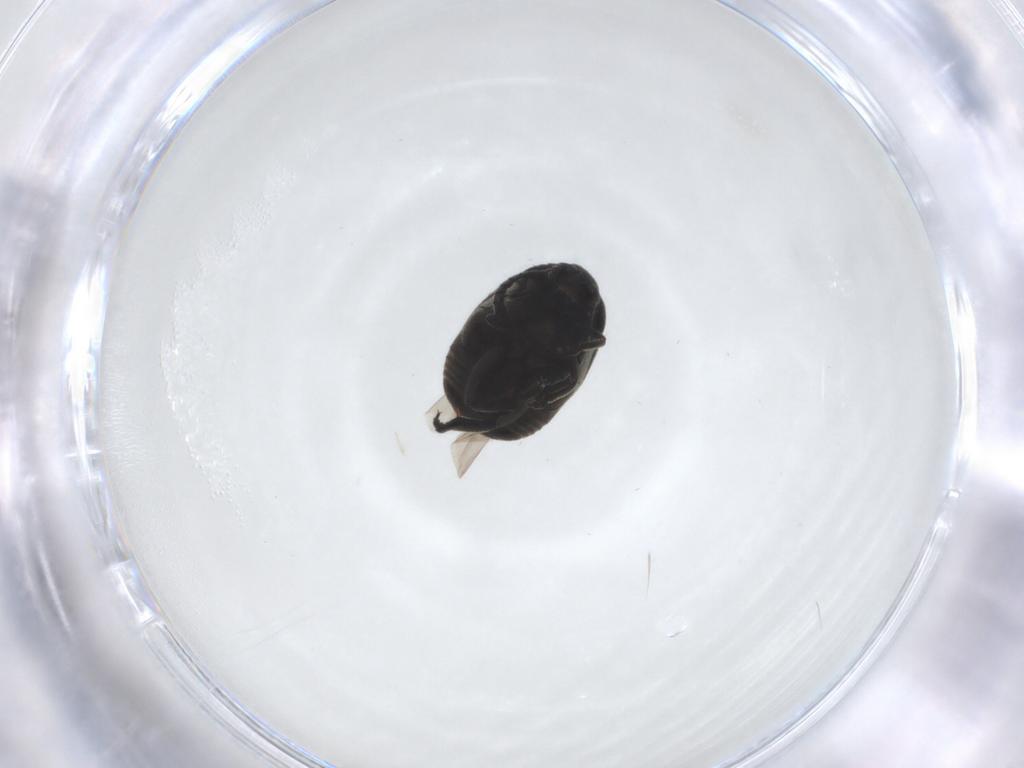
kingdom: Animalia
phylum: Arthropoda
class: Insecta
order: Coleoptera
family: Chrysomelidae
